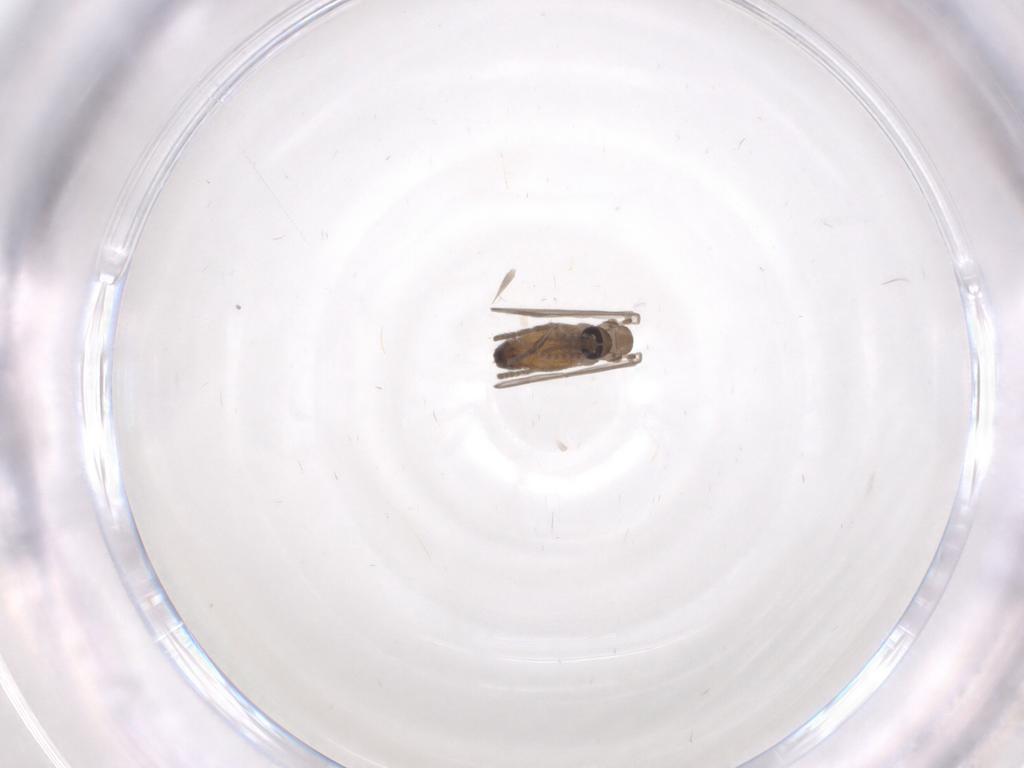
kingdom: Animalia
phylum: Arthropoda
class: Insecta
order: Diptera
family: Psychodidae
